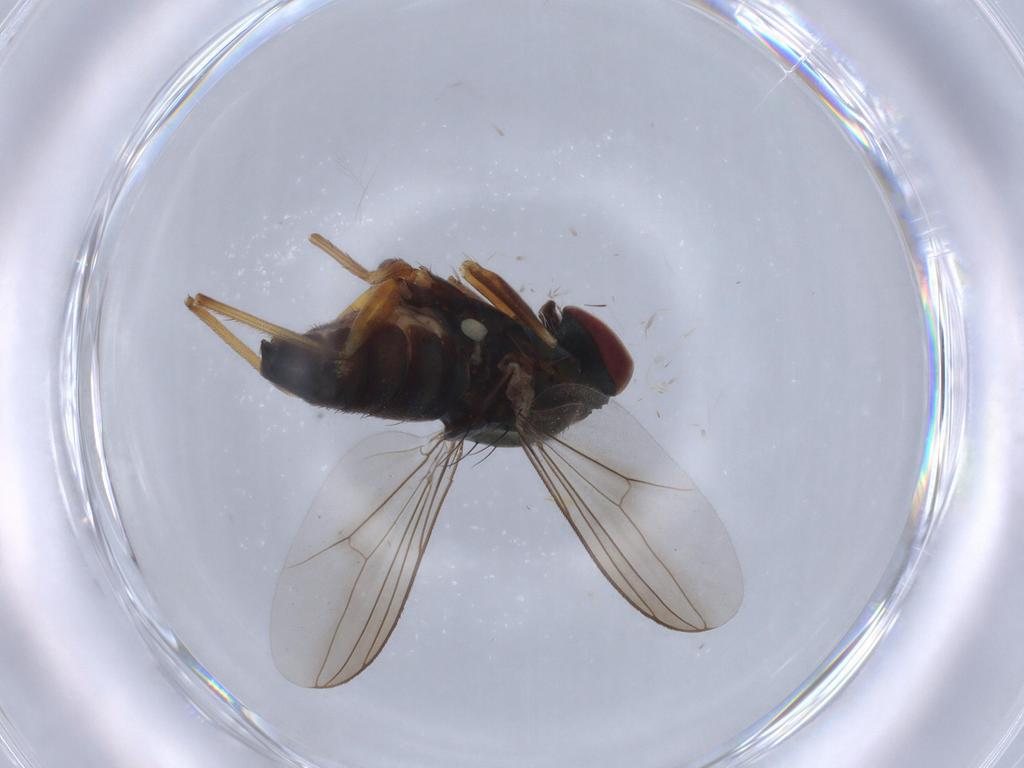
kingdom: Animalia
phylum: Arthropoda
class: Insecta
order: Diptera
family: Dolichopodidae
